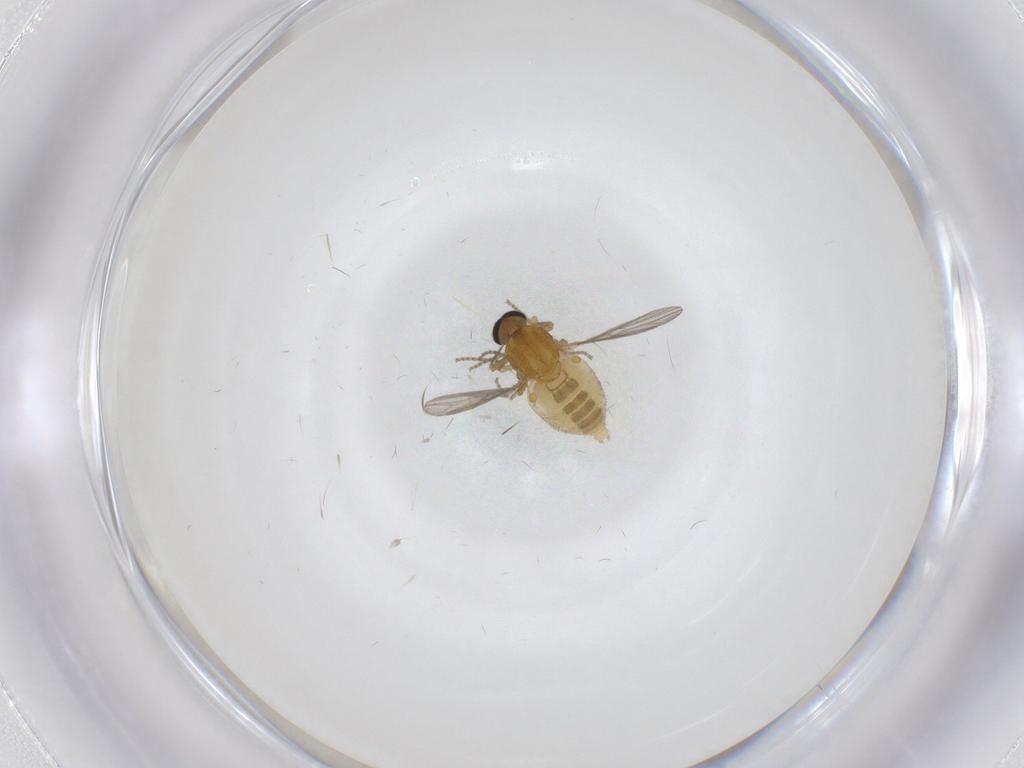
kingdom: Animalia
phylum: Arthropoda
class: Insecta
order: Diptera
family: Ceratopogonidae
